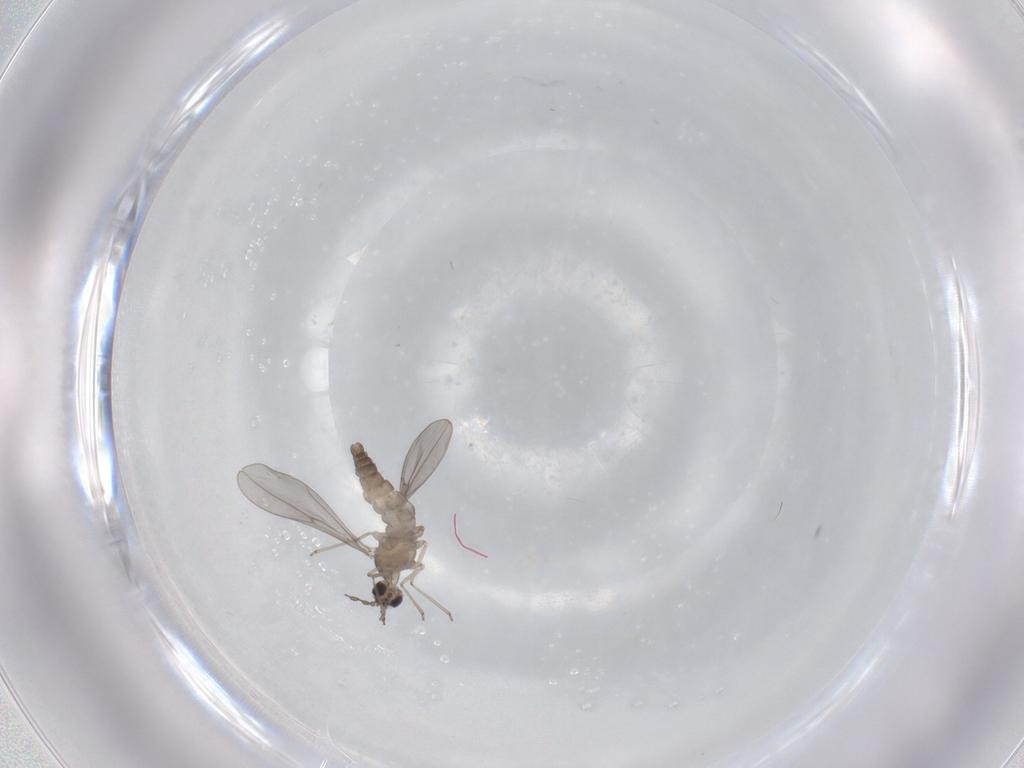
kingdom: Animalia
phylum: Arthropoda
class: Insecta
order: Diptera
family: Cecidomyiidae
